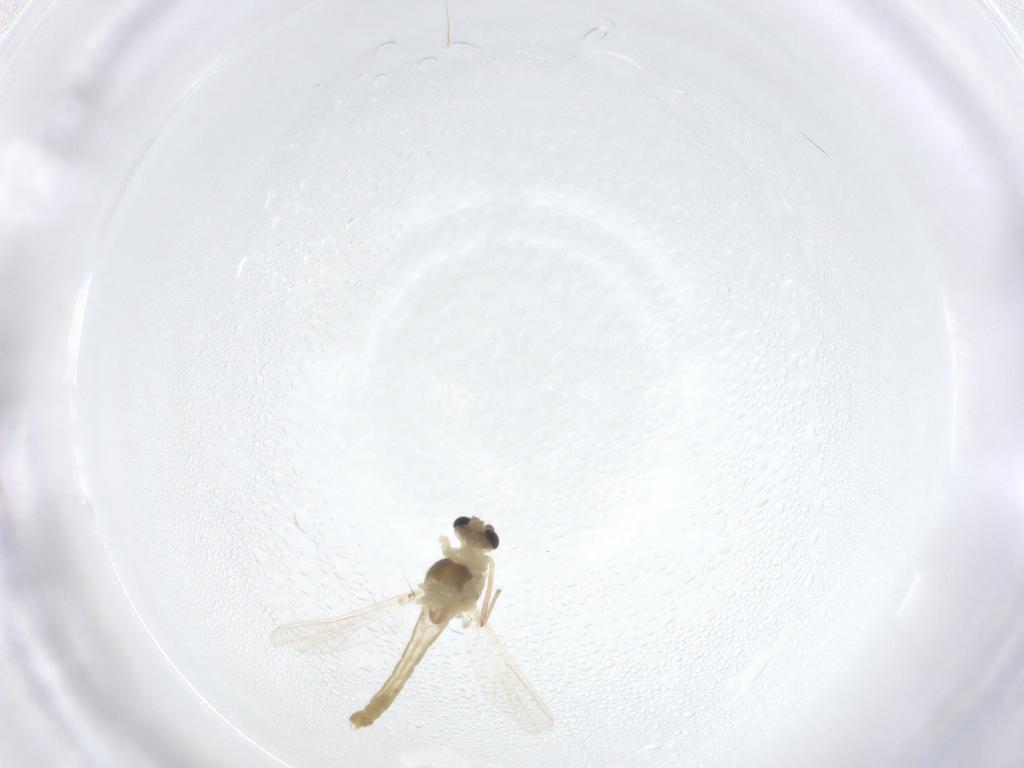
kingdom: Animalia
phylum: Arthropoda
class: Insecta
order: Diptera
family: Chironomidae
